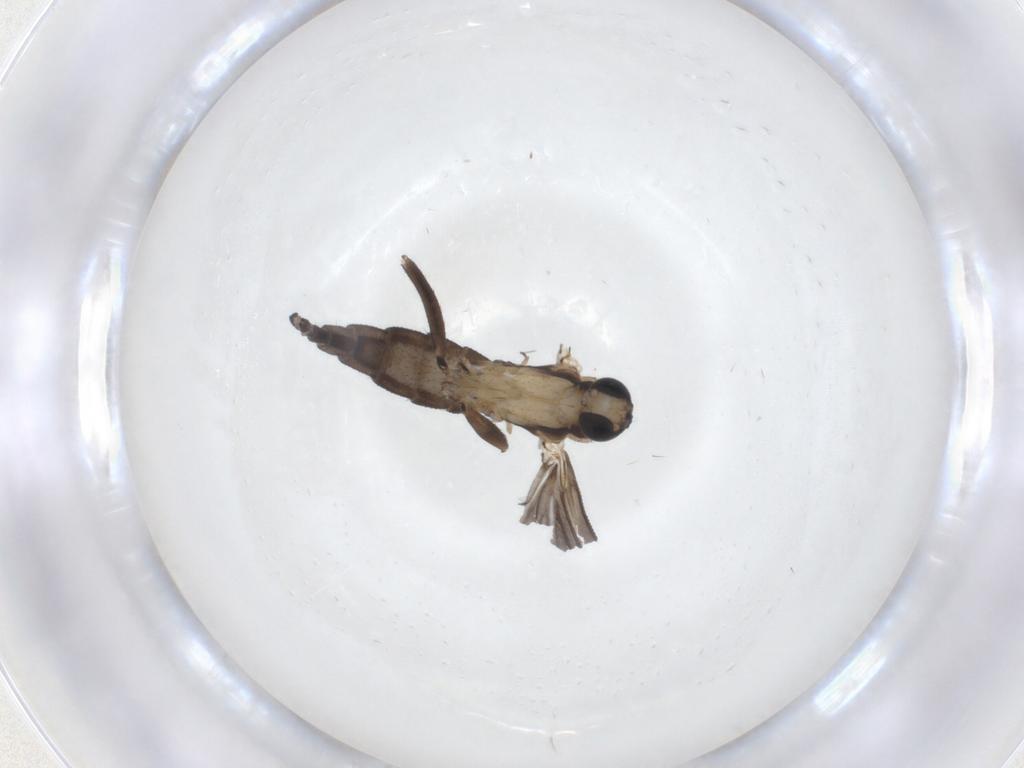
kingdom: Animalia
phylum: Arthropoda
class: Insecta
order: Diptera
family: Sciaridae
